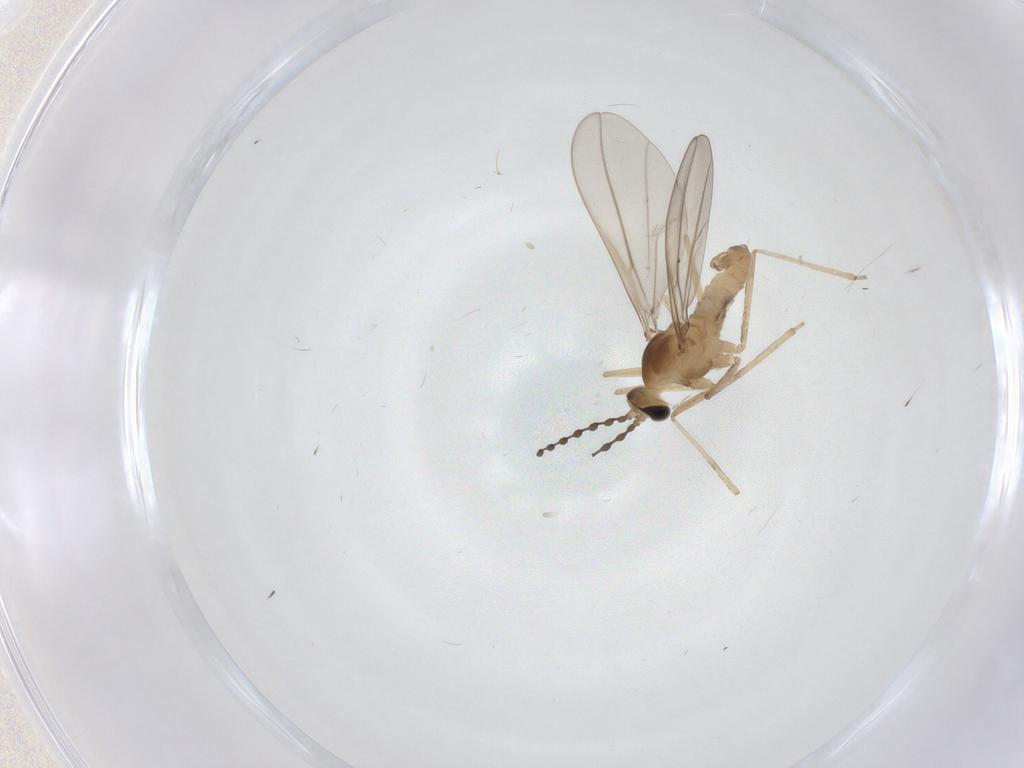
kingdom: Animalia
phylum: Arthropoda
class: Insecta
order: Diptera
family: Cecidomyiidae
